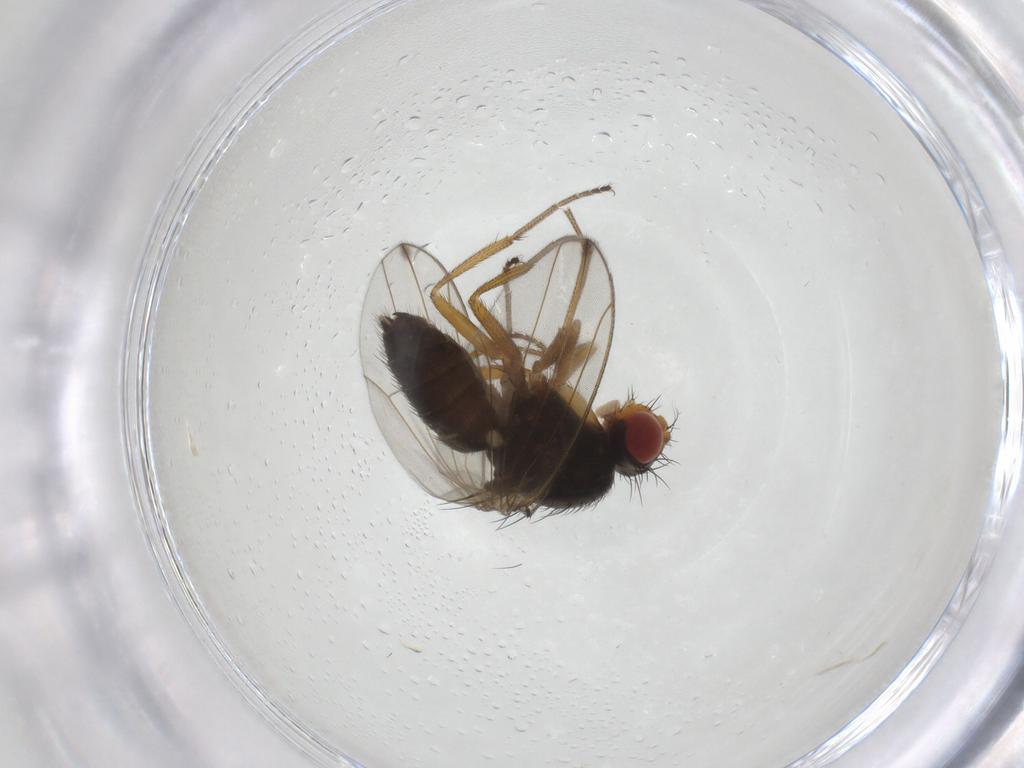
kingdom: Animalia
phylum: Arthropoda
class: Insecta
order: Diptera
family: Drosophilidae
